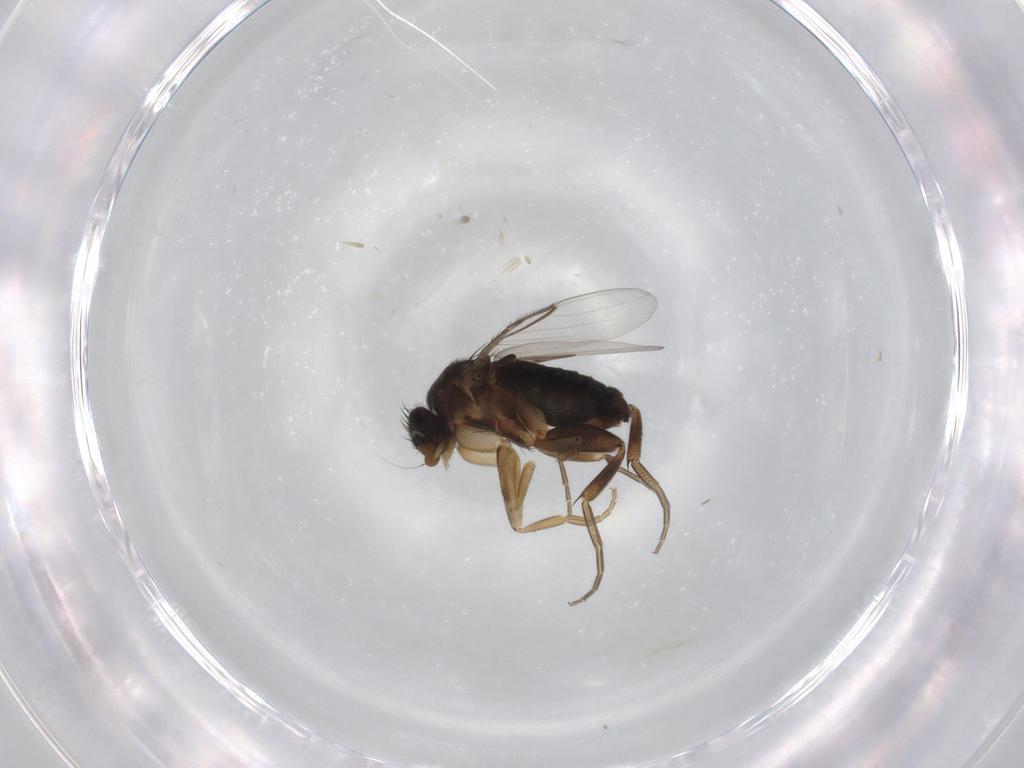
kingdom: Animalia
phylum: Arthropoda
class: Insecta
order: Diptera
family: Phoridae
